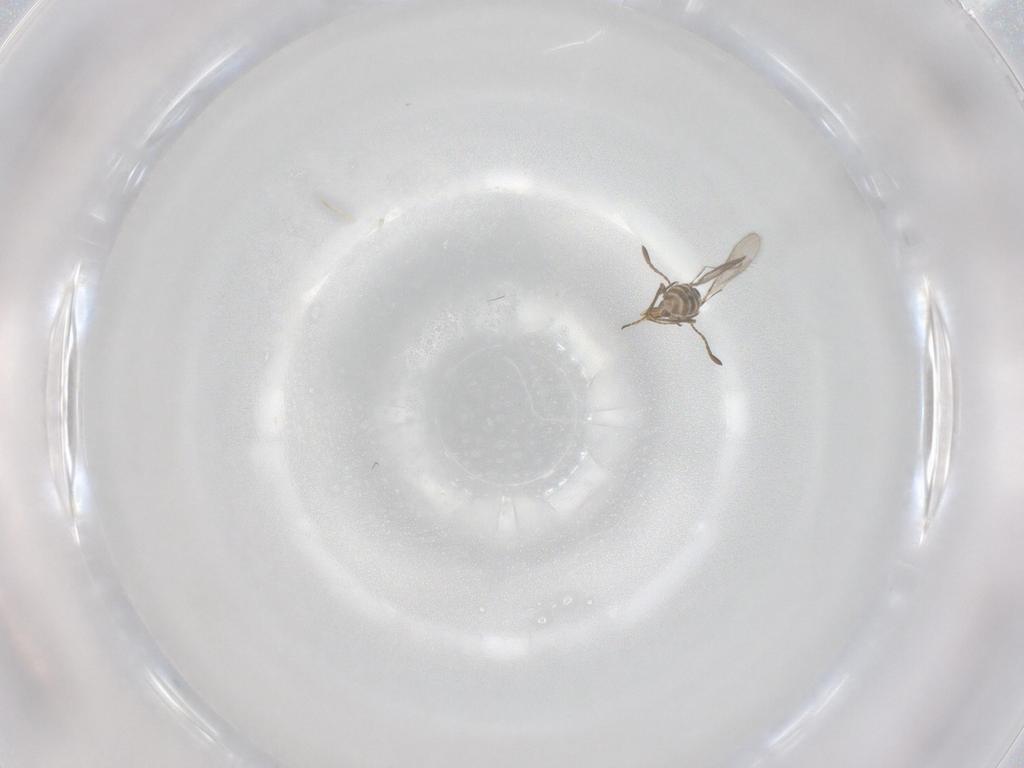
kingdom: Animalia
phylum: Arthropoda
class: Insecta
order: Hymenoptera
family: Mymaridae
